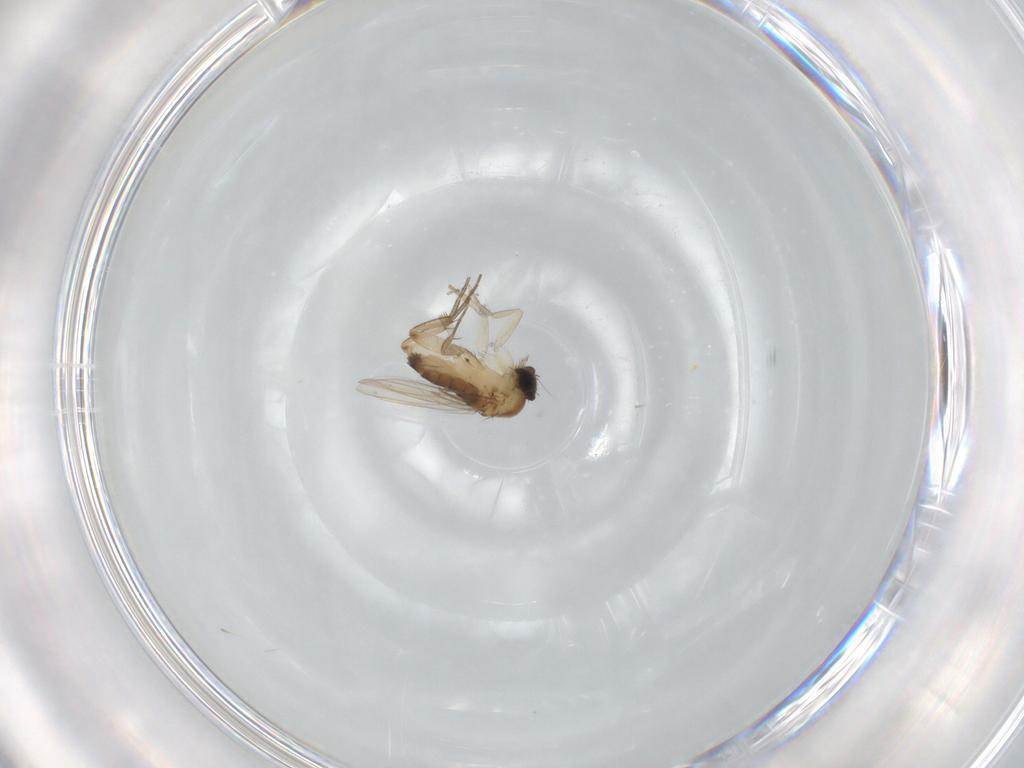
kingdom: Animalia
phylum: Arthropoda
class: Insecta
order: Diptera
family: Phoridae
